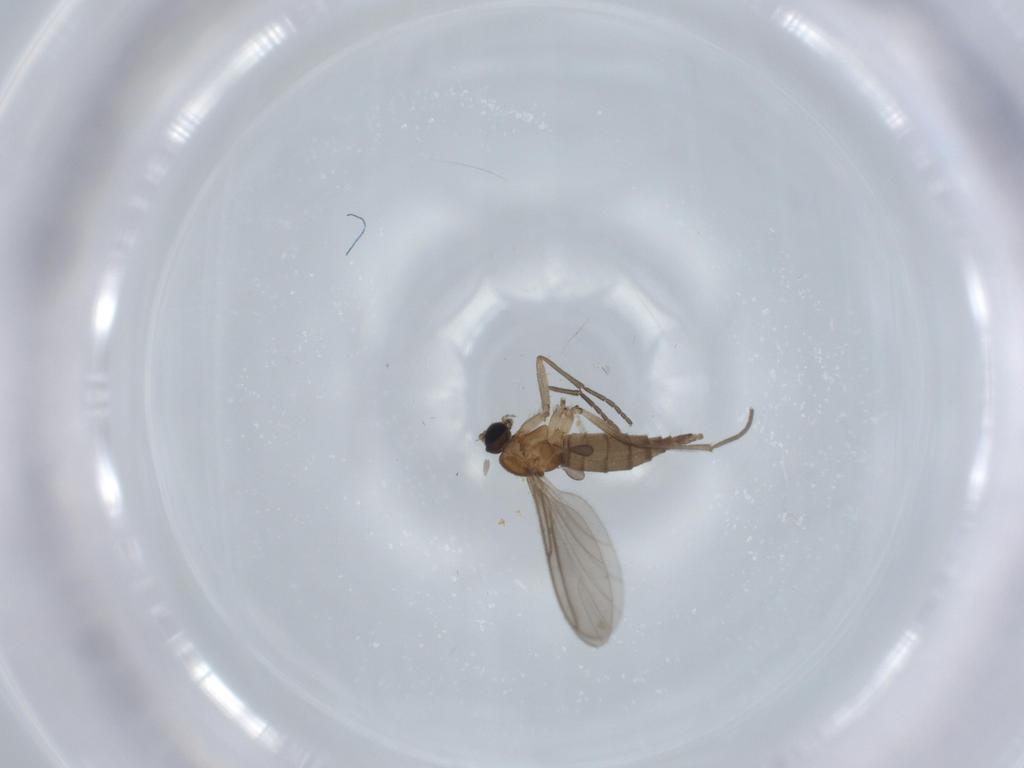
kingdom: Animalia
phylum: Arthropoda
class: Insecta
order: Diptera
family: Sciaridae
